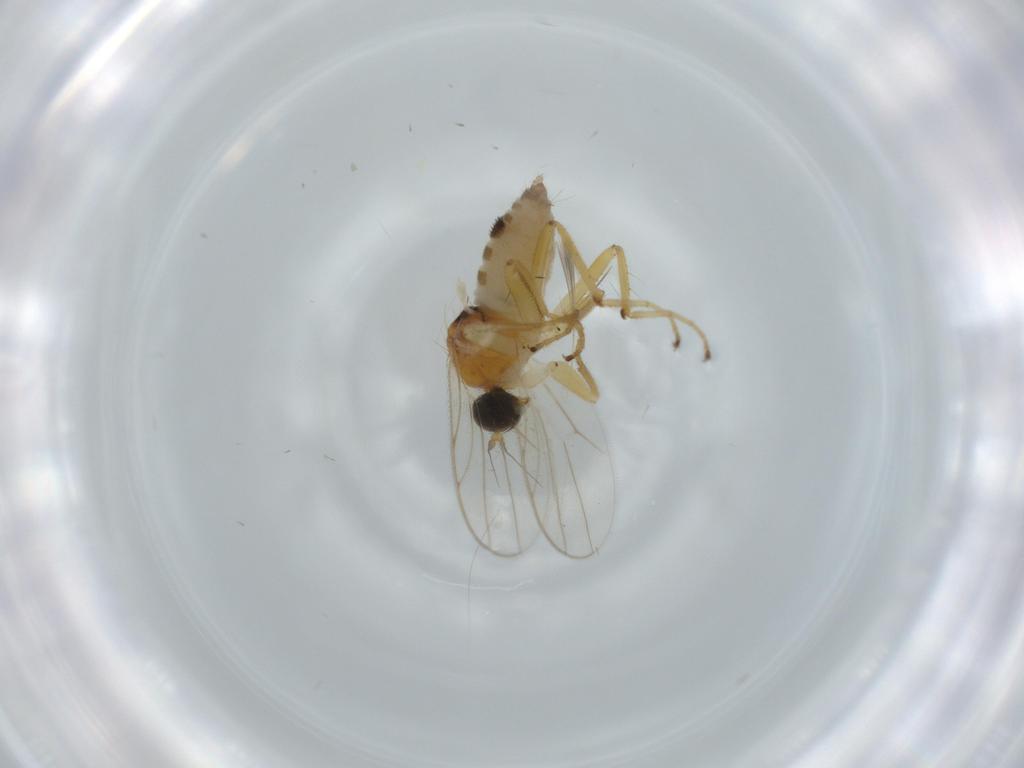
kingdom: Animalia
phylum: Arthropoda
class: Insecta
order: Diptera
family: Hybotidae
